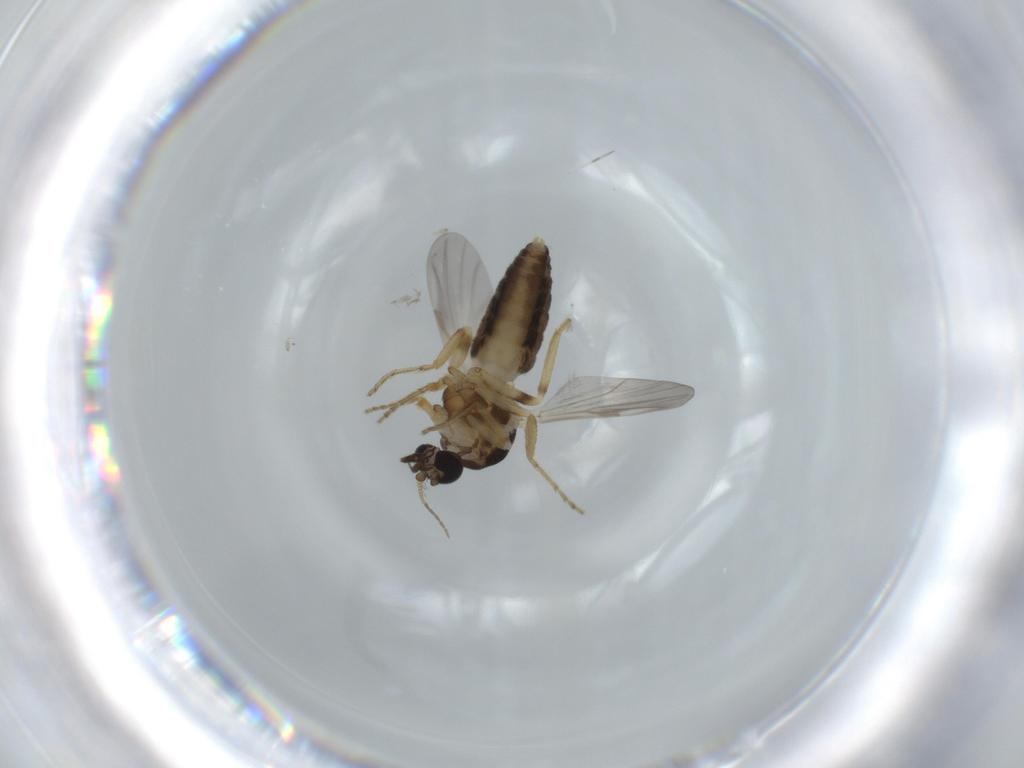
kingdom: Animalia
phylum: Arthropoda
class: Insecta
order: Diptera
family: Ceratopogonidae
